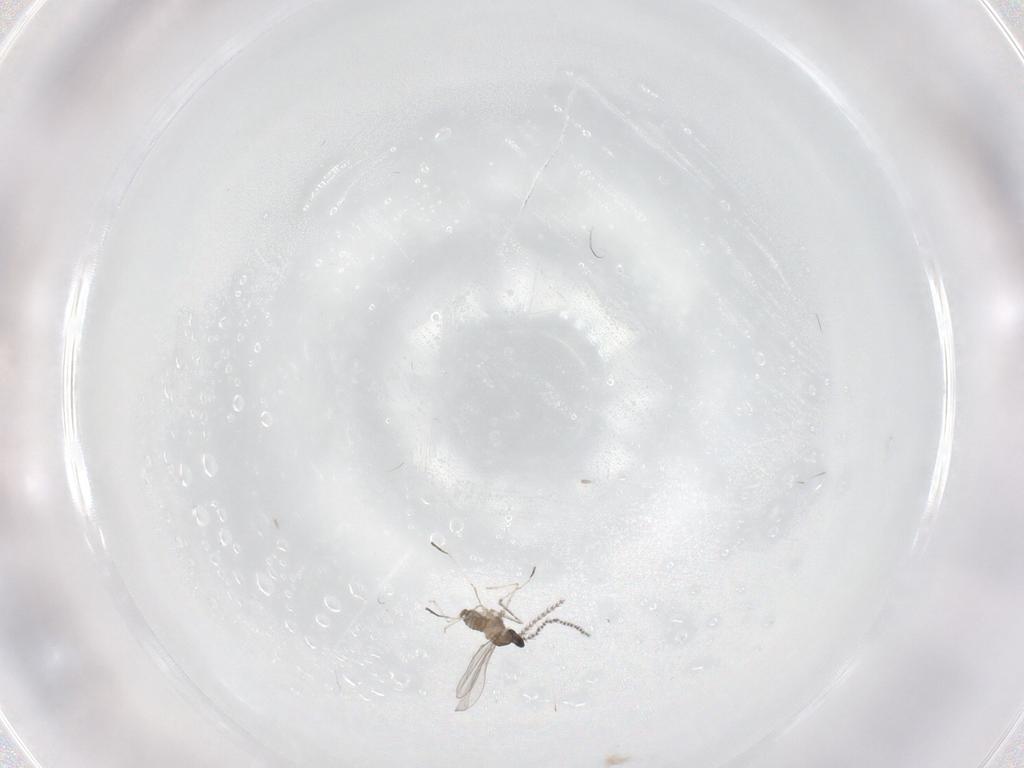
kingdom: Animalia
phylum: Arthropoda
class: Insecta
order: Diptera
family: Cecidomyiidae
